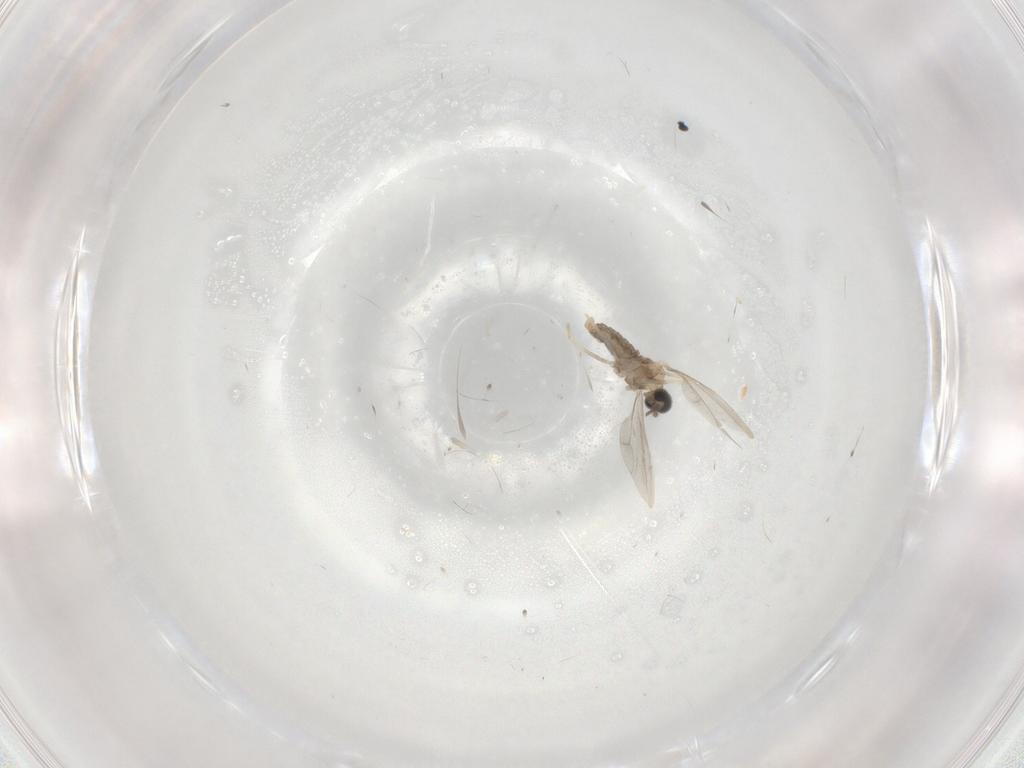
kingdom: Animalia
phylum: Arthropoda
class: Insecta
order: Diptera
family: Cecidomyiidae
